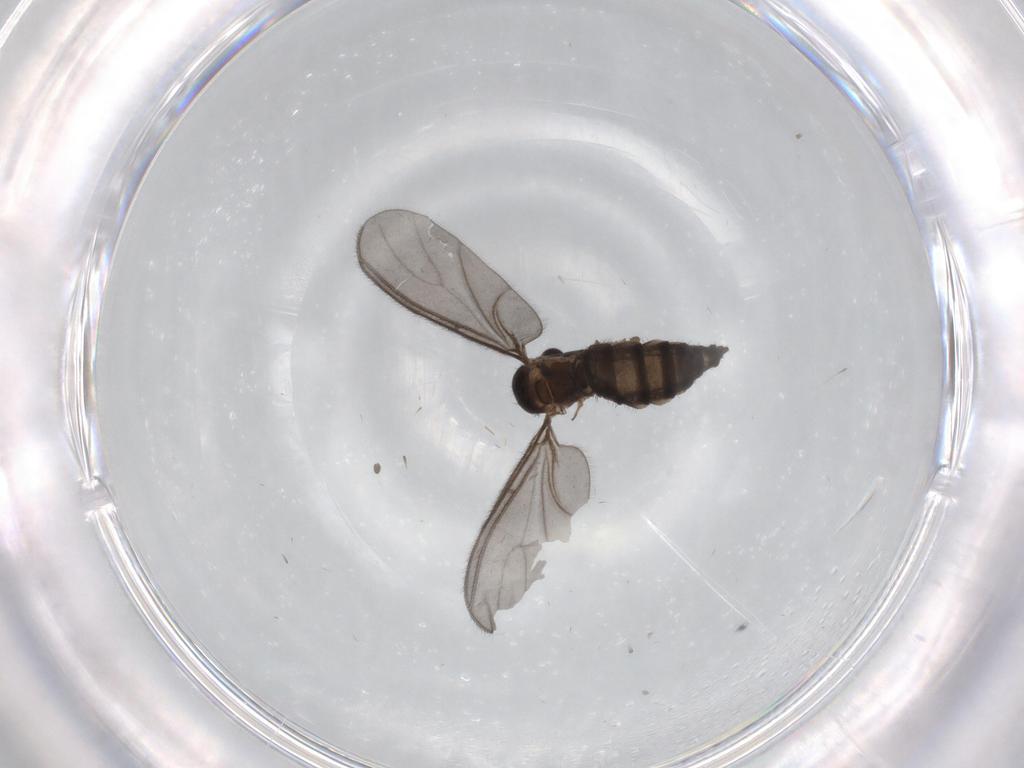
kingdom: Animalia
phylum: Arthropoda
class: Insecta
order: Diptera
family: Sciaridae
